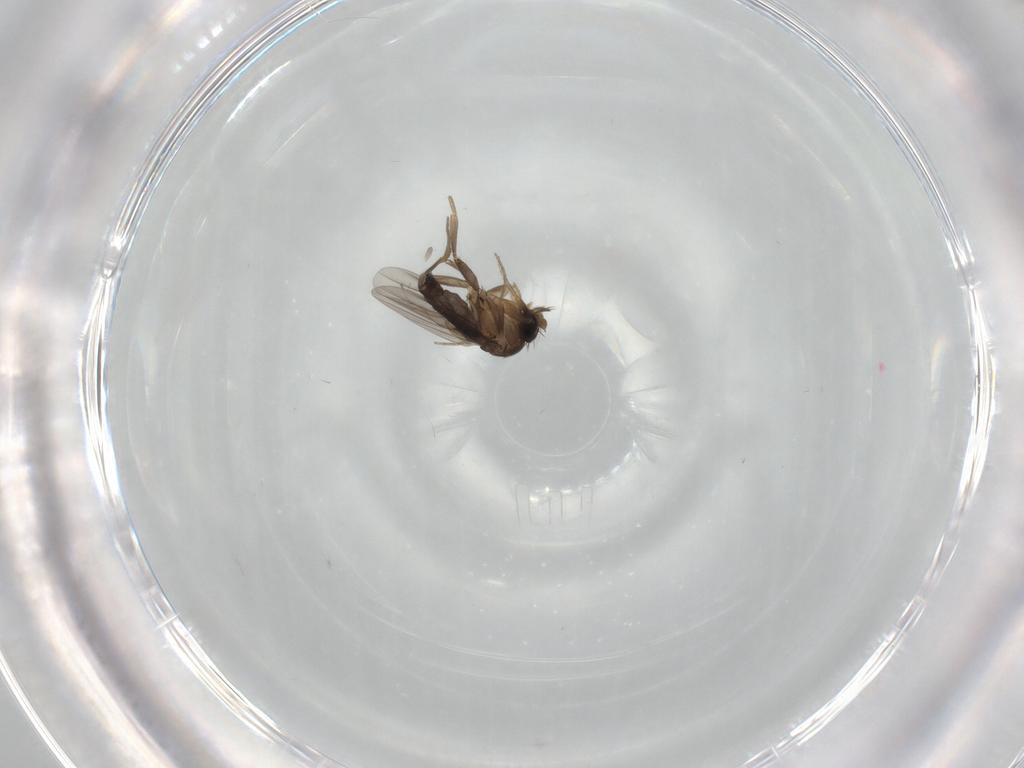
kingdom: Animalia
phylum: Arthropoda
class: Insecta
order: Diptera
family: Phoridae
